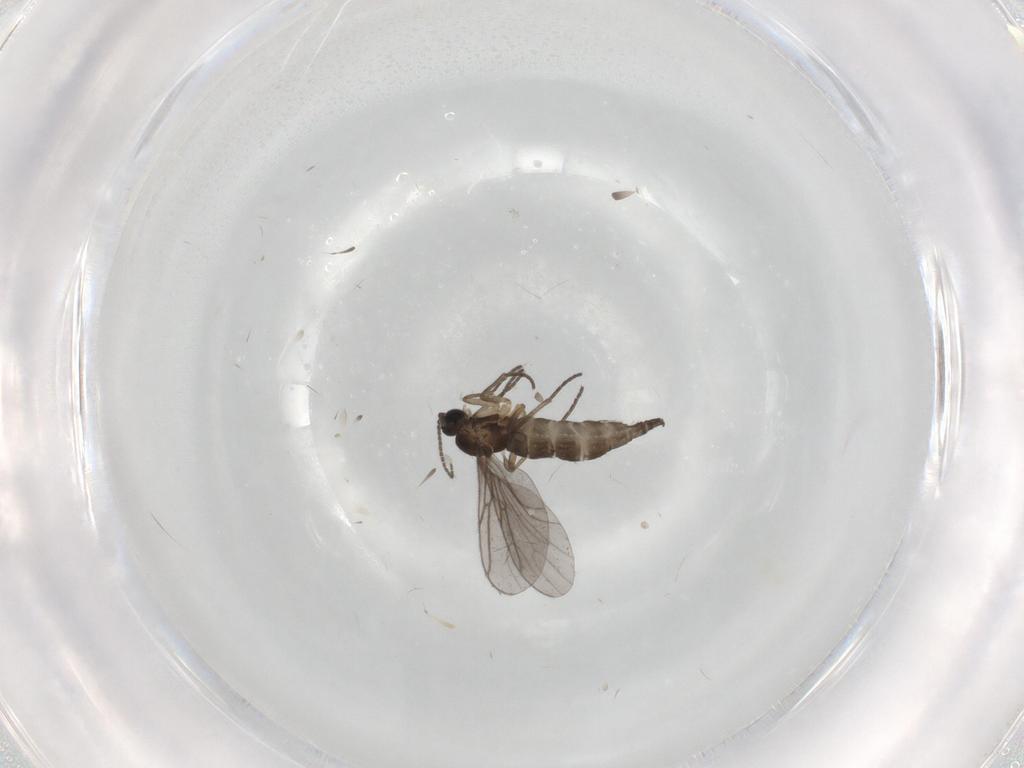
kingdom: Animalia
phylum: Arthropoda
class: Insecta
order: Diptera
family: Sciaridae
